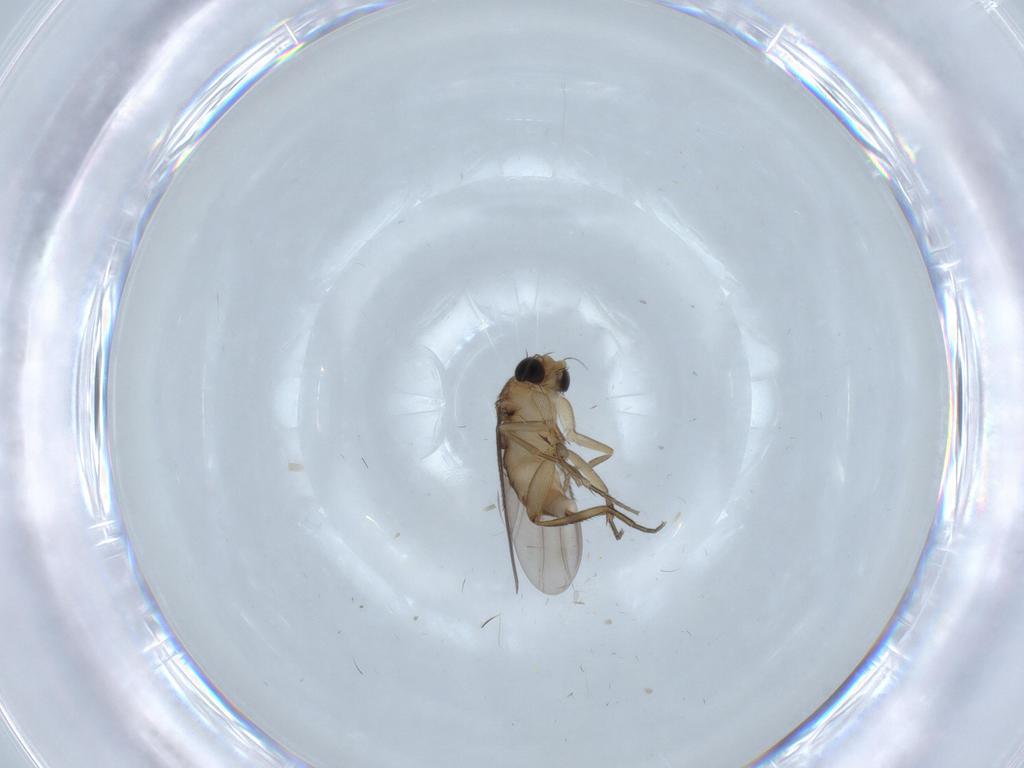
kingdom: Animalia
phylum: Arthropoda
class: Insecta
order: Diptera
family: Phoridae
